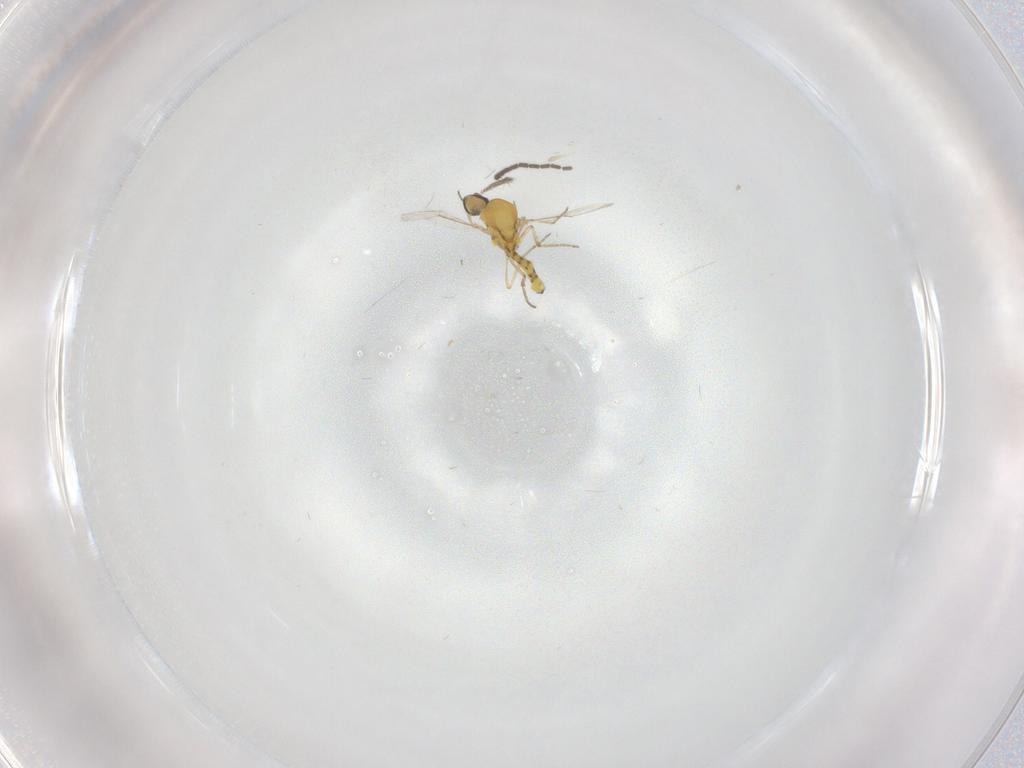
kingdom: Animalia
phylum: Arthropoda
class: Insecta
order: Diptera
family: Ceratopogonidae
